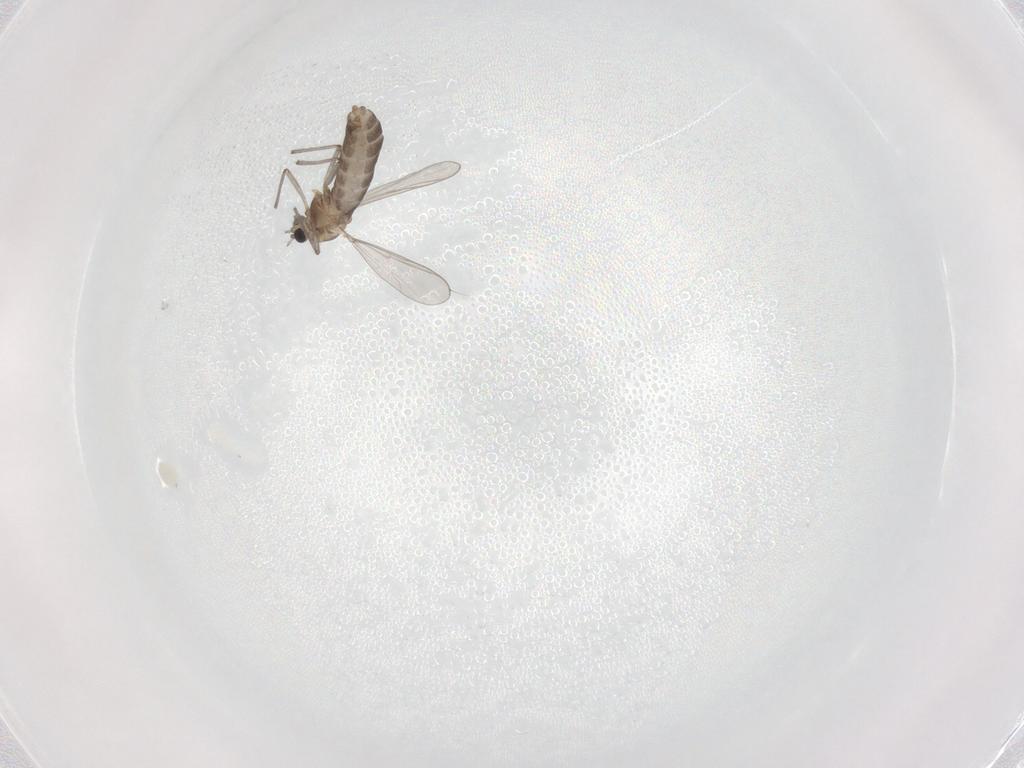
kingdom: Animalia
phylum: Arthropoda
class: Insecta
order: Diptera
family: Chironomidae
